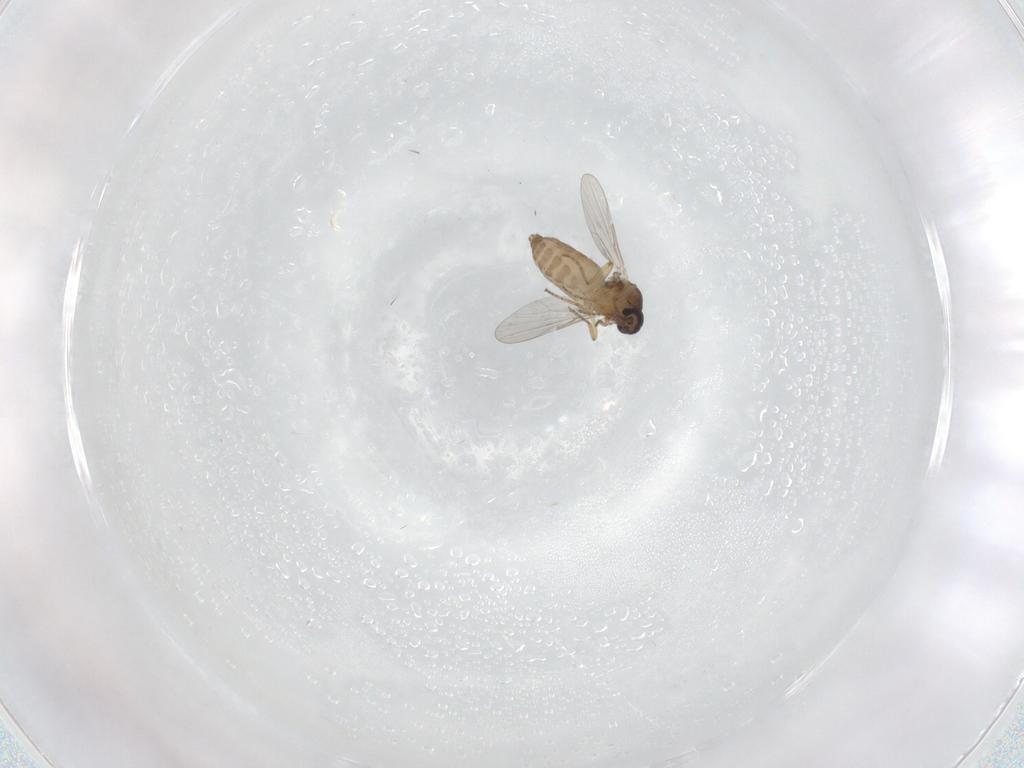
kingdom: Animalia
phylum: Arthropoda
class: Insecta
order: Diptera
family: Ceratopogonidae
